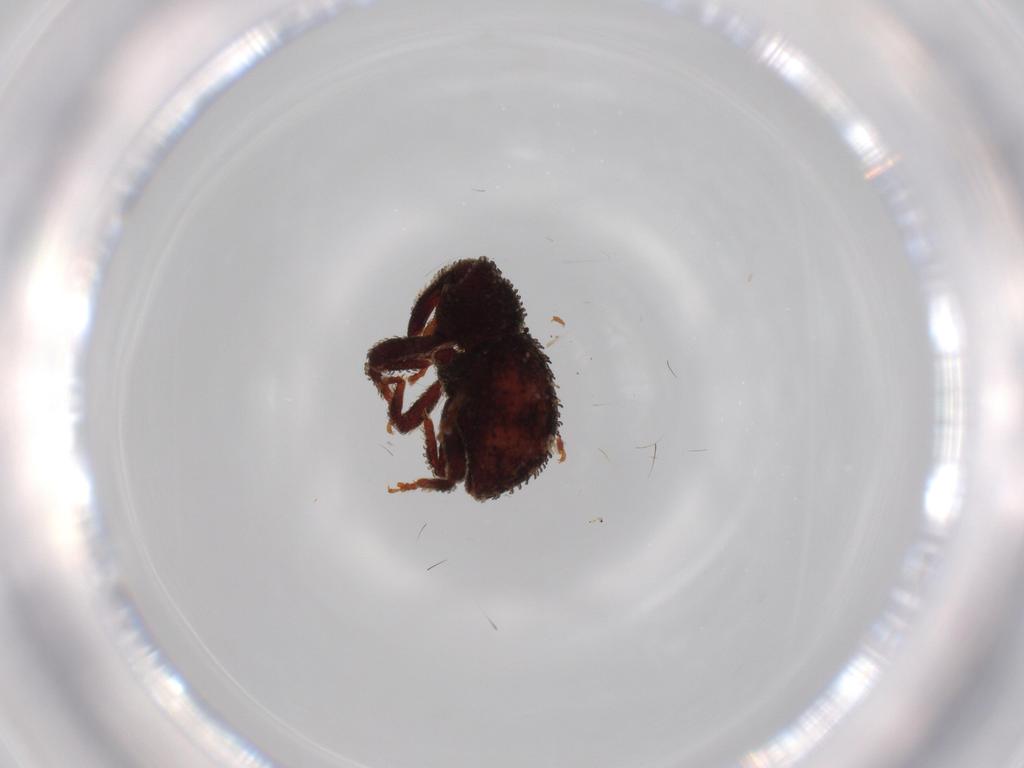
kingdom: Animalia
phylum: Arthropoda
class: Insecta
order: Coleoptera
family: Curculionidae
